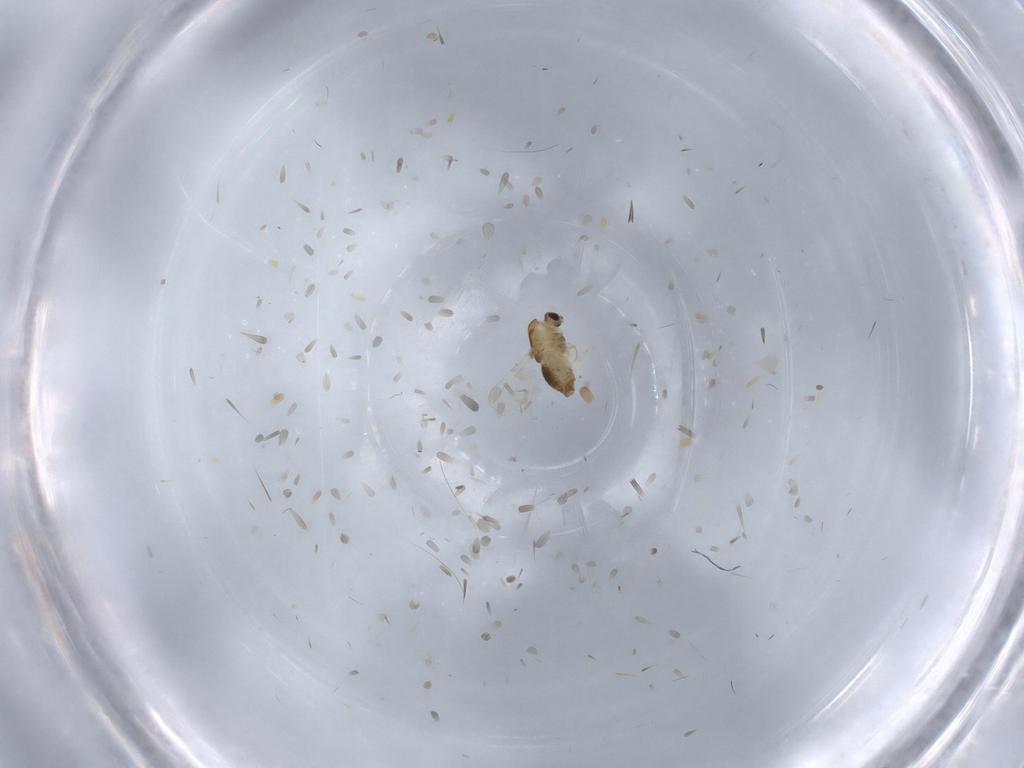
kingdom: Animalia
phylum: Arthropoda
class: Insecta
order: Diptera
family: Chironomidae
